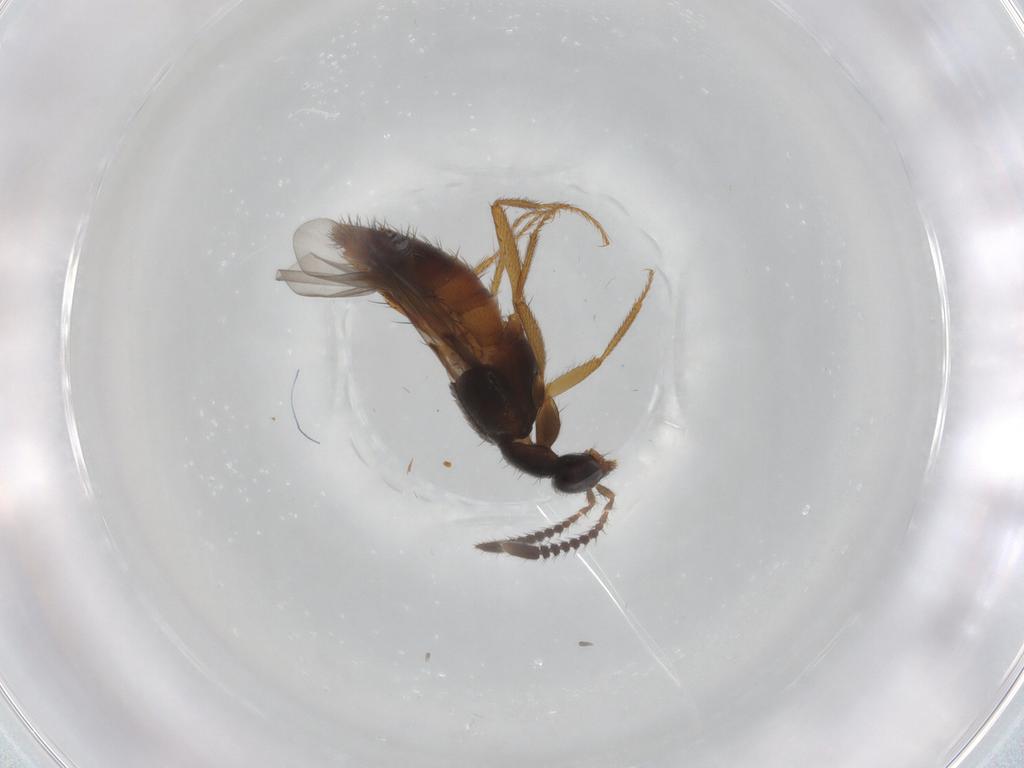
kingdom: Animalia
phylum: Arthropoda
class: Insecta
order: Coleoptera
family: Staphylinidae
